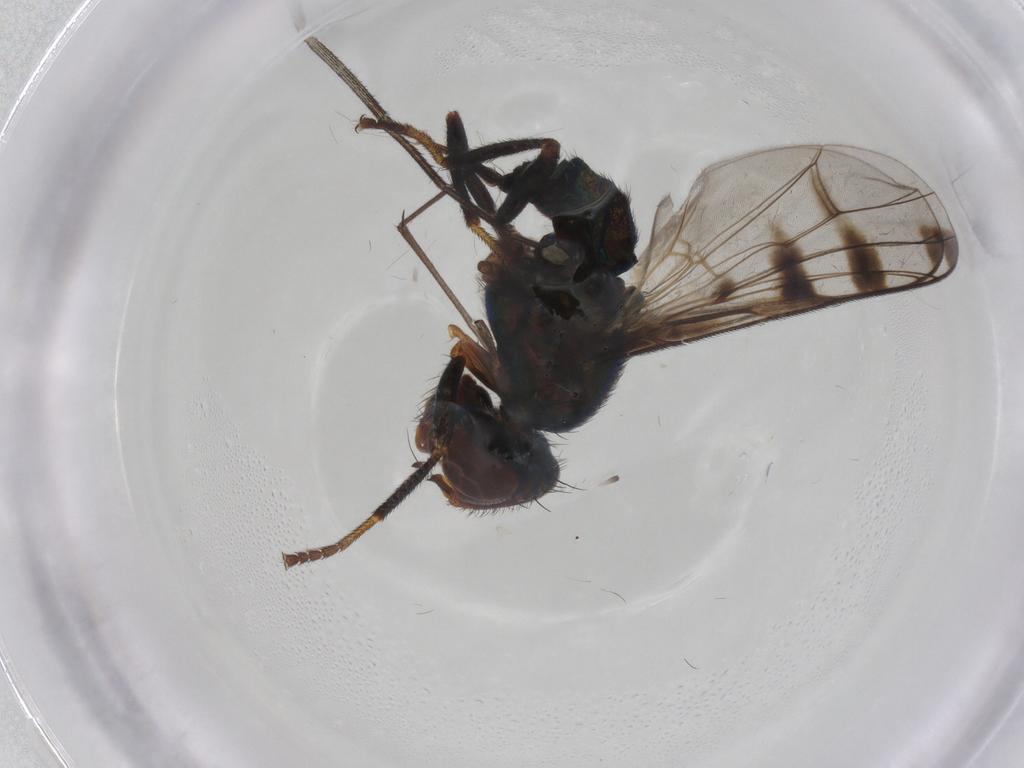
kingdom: Animalia
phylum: Arthropoda
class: Insecta
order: Diptera
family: Platystomatidae
